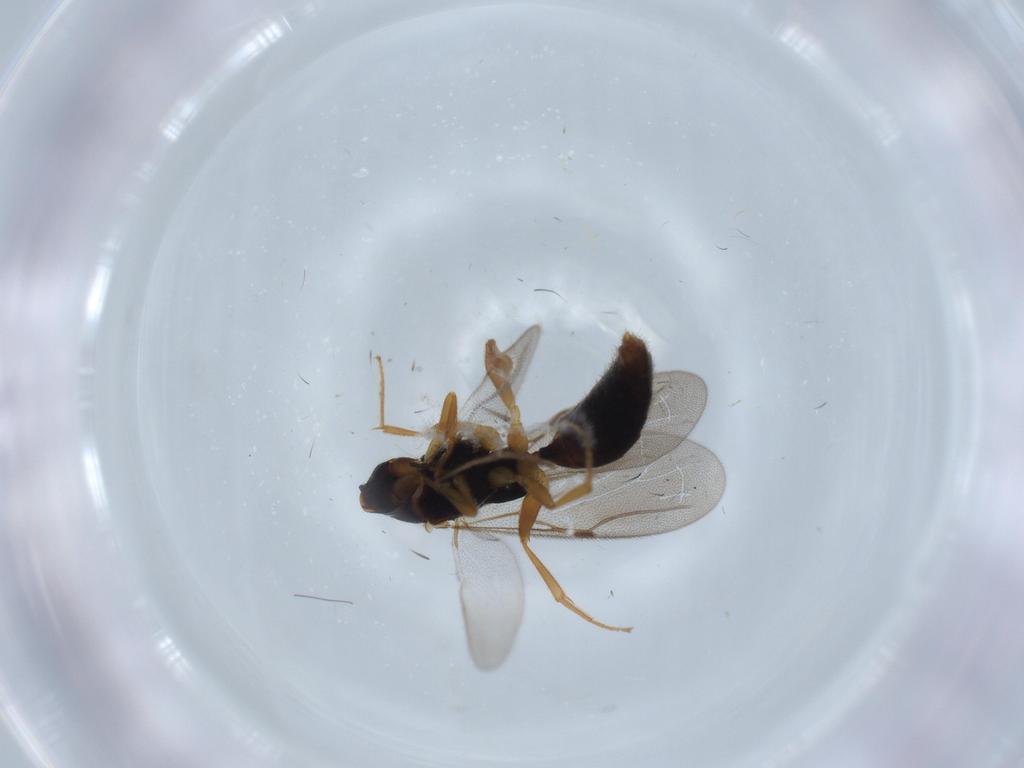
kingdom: Animalia
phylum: Arthropoda
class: Insecta
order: Hymenoptera
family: Bethylidae
